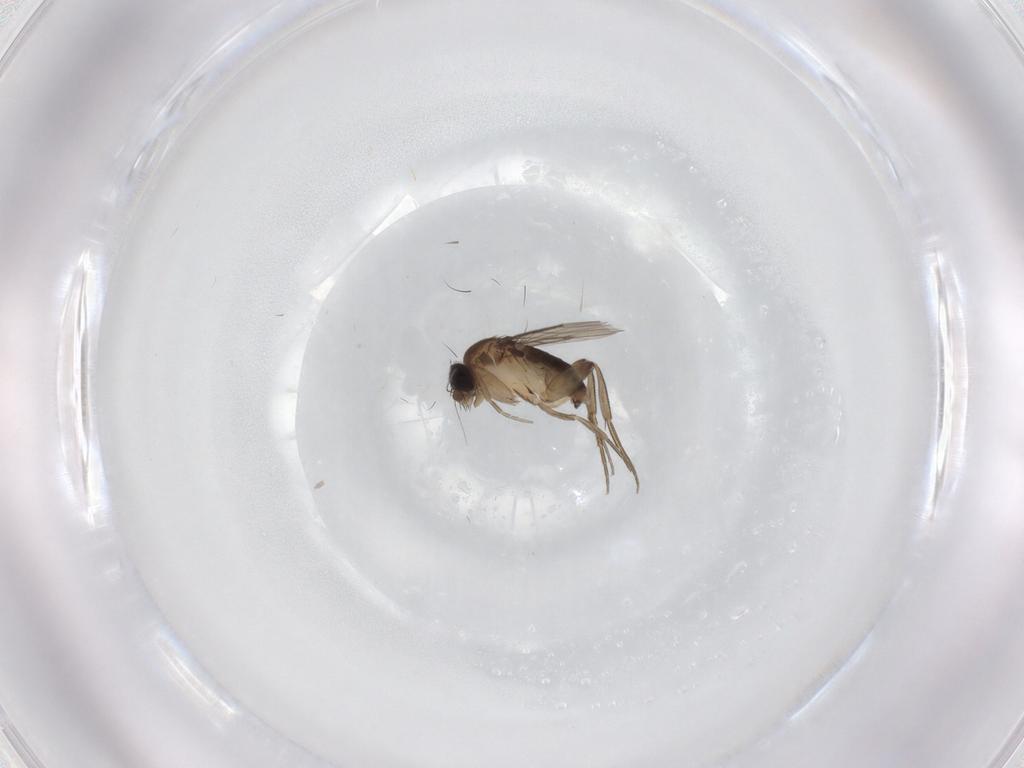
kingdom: Animalia
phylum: Arthropoda
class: Insecta
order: Diptera
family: Phoridae
